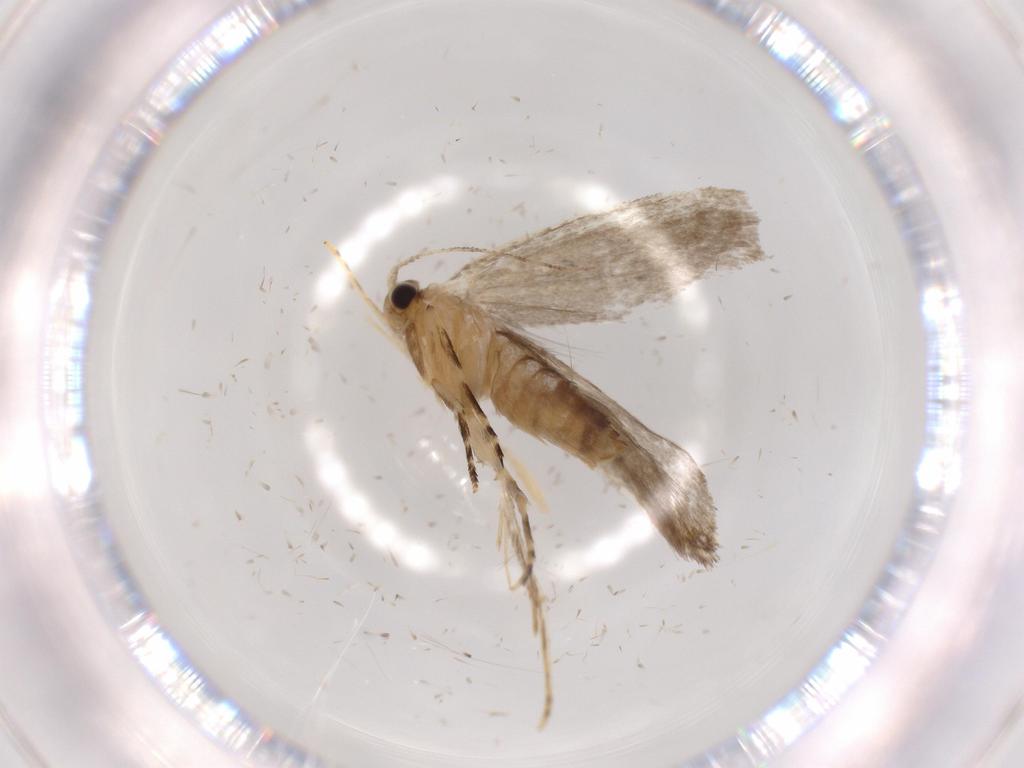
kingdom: Animalia
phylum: Arthropoda
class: Insecta
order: Lepidoptera
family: Tineidae
